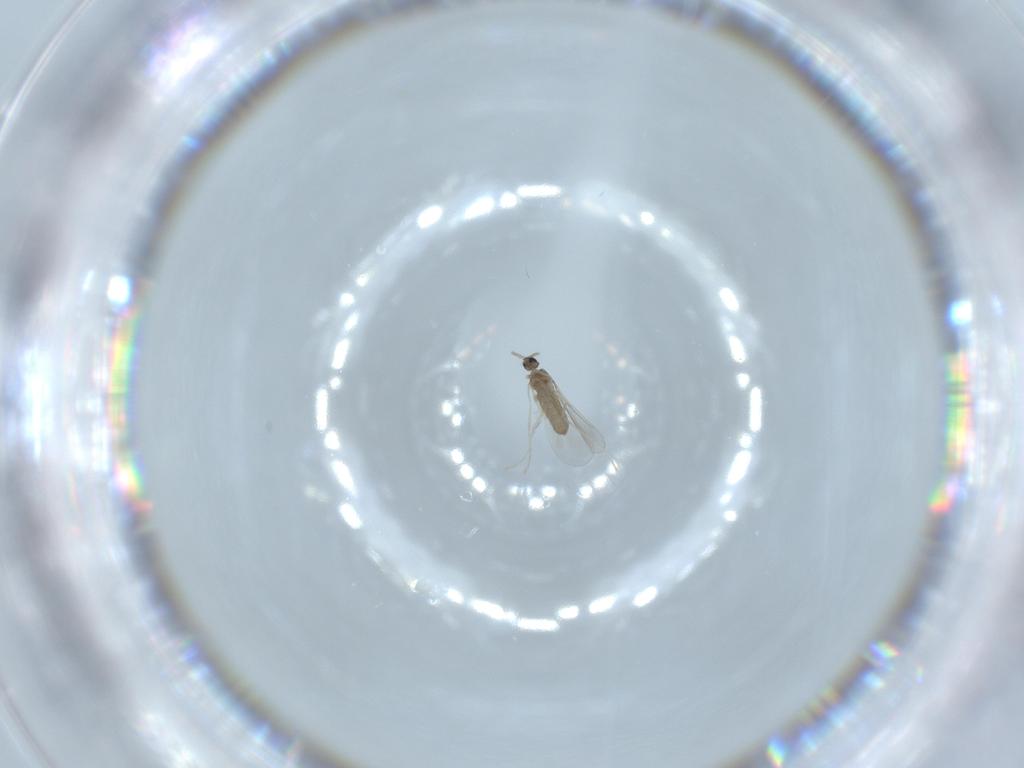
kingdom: Animalia
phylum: Arthropoda
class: Insecta
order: Diptera
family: Cecidomyiidae
